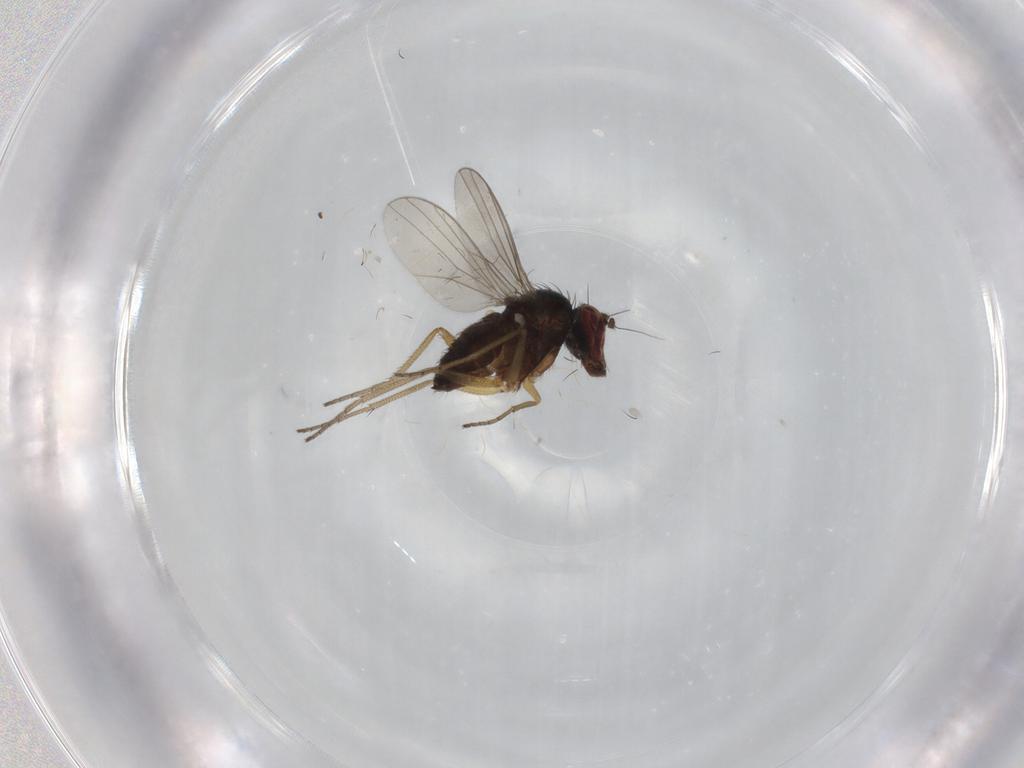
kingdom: Animalia
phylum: Arthropoda
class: Insecta
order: Diptera
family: Dolichopodidae
